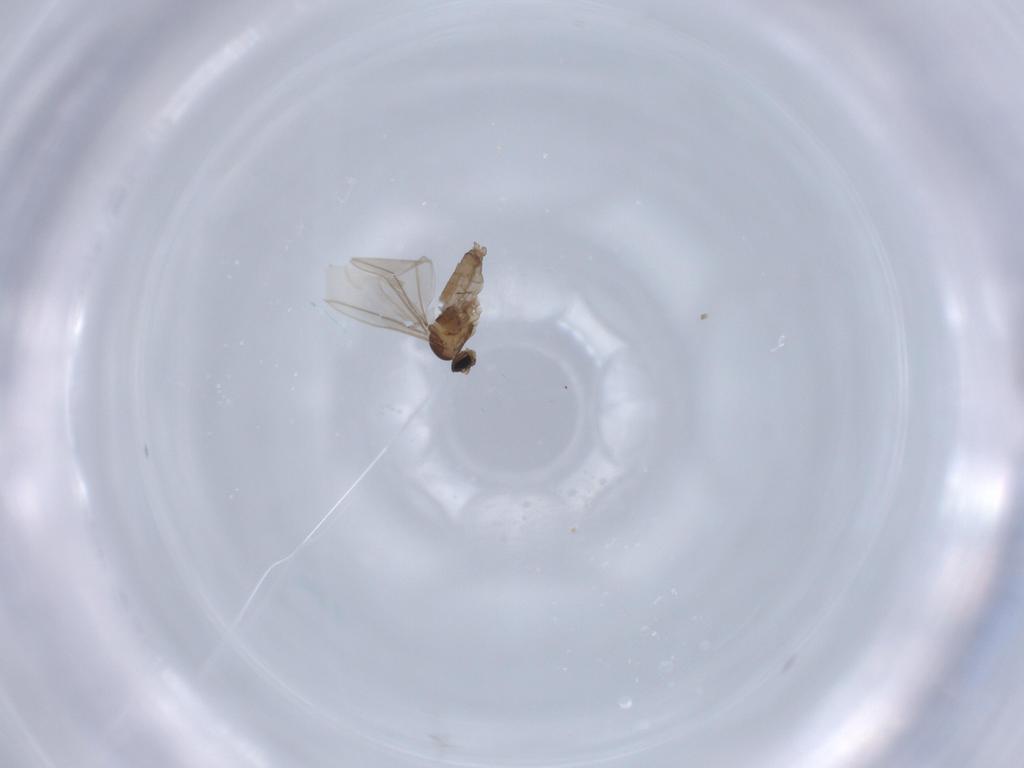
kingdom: Animalia
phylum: Arthropoda
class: Insecta
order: Diptera
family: Cecidomyiidae
